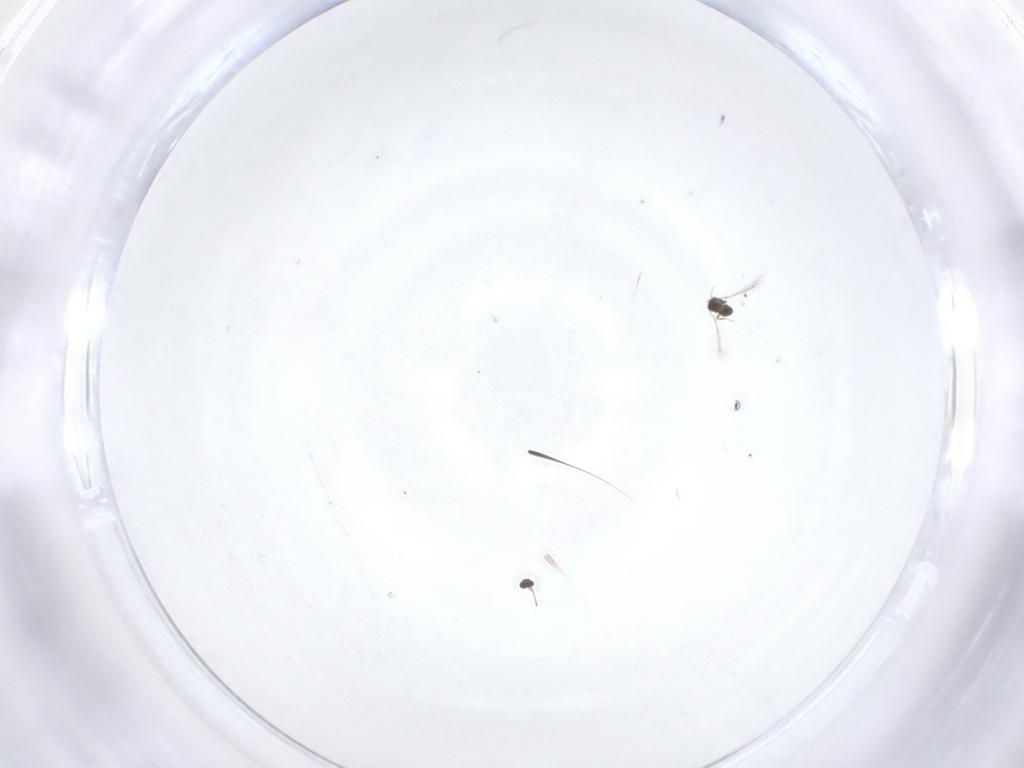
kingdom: Animalia
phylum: Arthropoda
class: Insecta
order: Hymenoptera
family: Mymaridae
